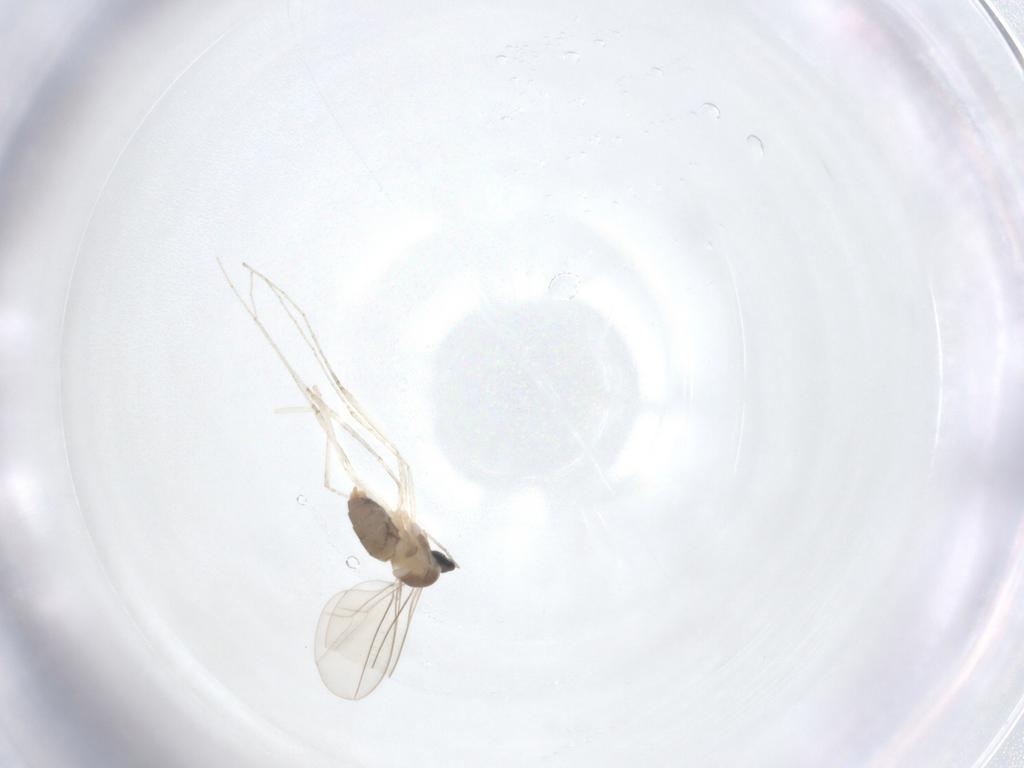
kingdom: Animalia
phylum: Arthropoda
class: Insecta
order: Diptera
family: Cecidomyiidae
